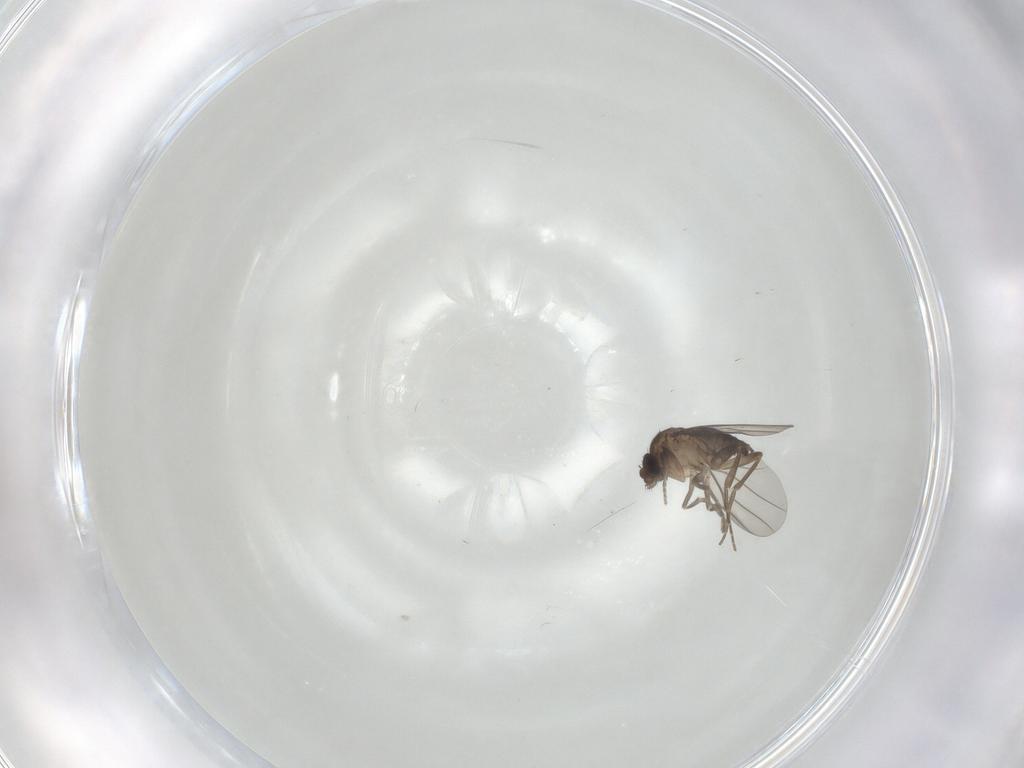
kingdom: Animalia
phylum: Arthropoda
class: Insecta
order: Diptera
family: Phoridae
